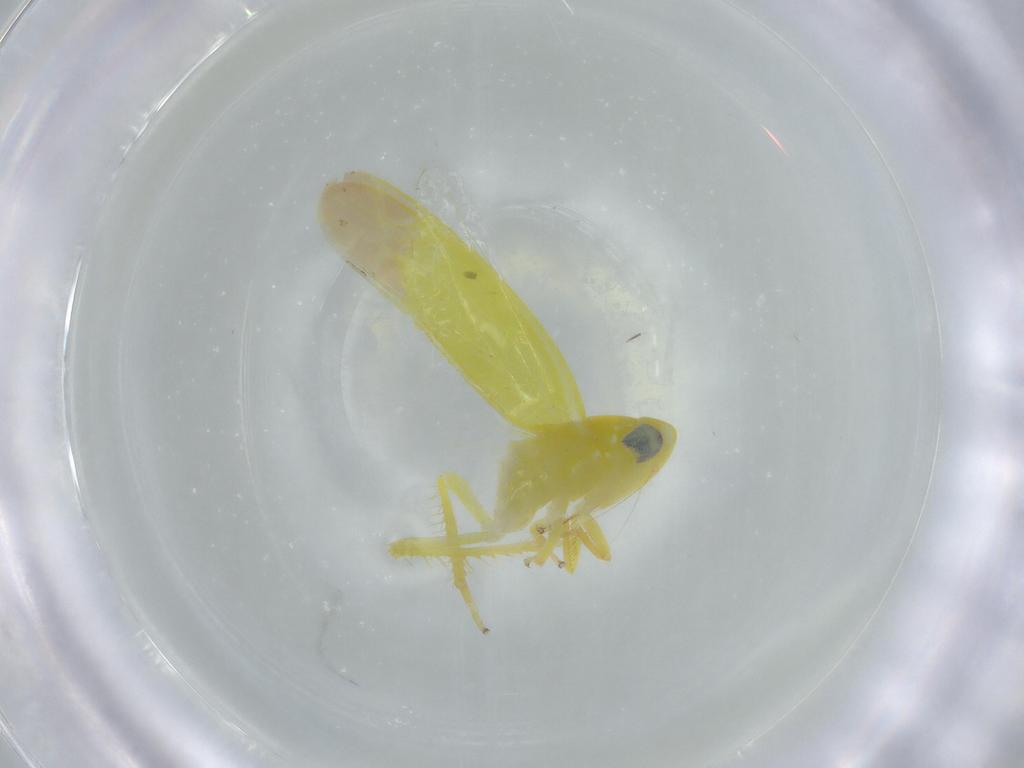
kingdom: Animalia
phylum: Arthropoda
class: Insecta
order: Hemiptera
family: Cicadellidae
